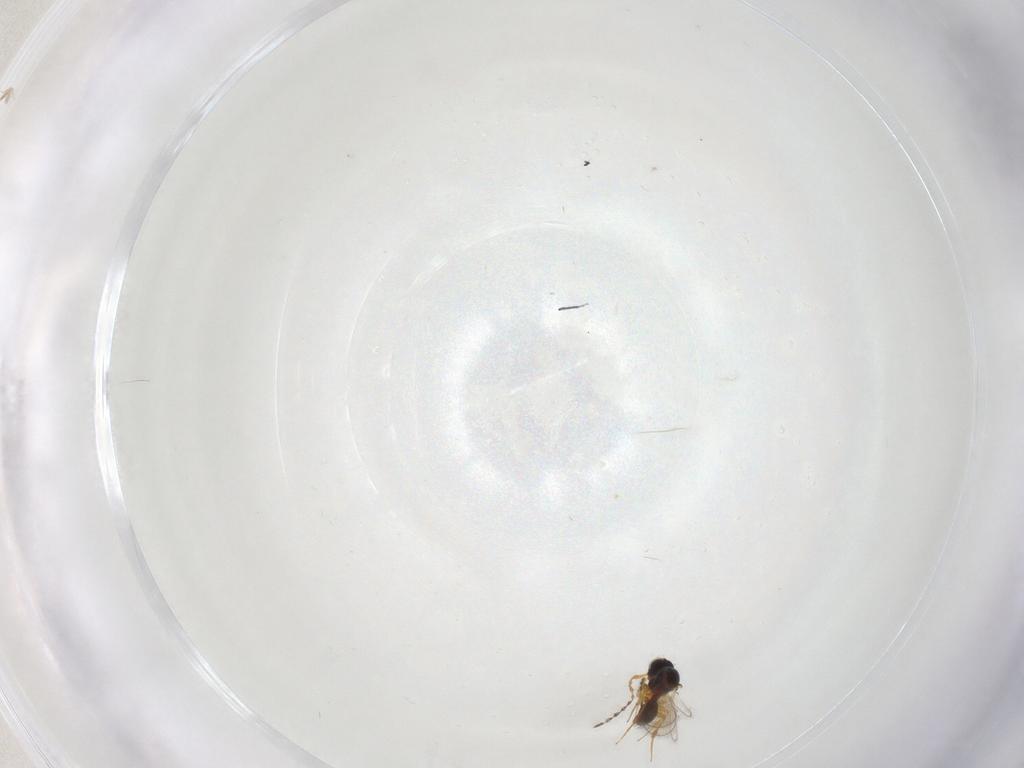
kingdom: Animalia
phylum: Arthropoda
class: Insecta
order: Hymenoptera
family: Platygastridae
